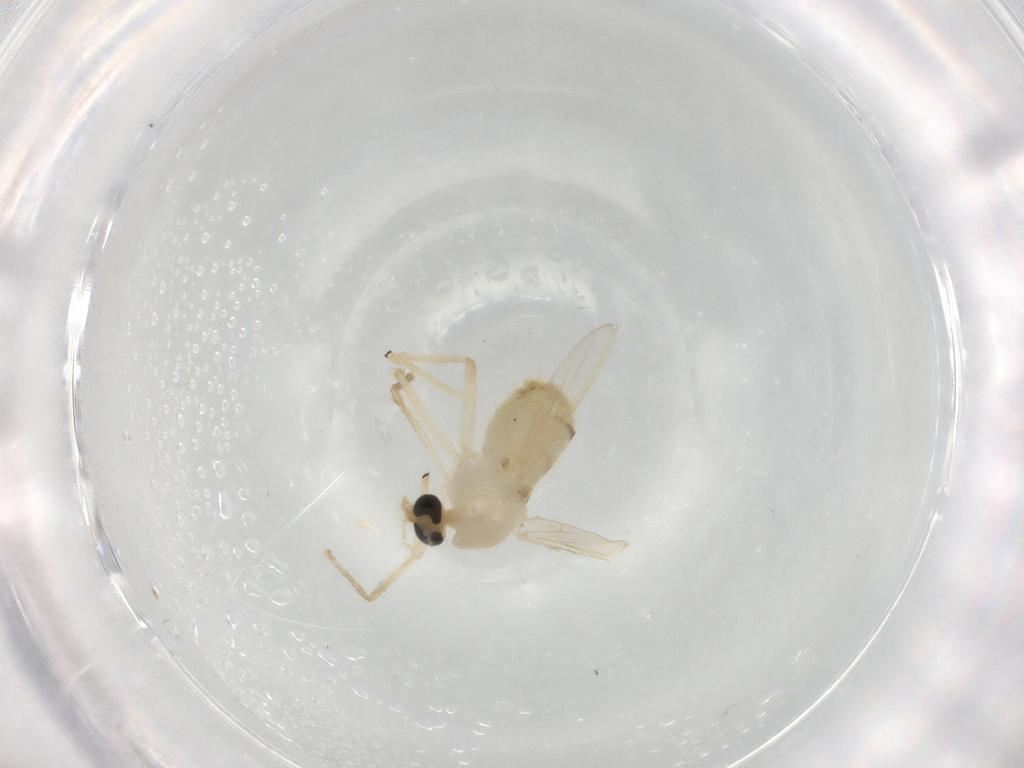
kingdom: Animalia
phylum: Arthropoda
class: Insecta
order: Diptera
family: Chironomidae
